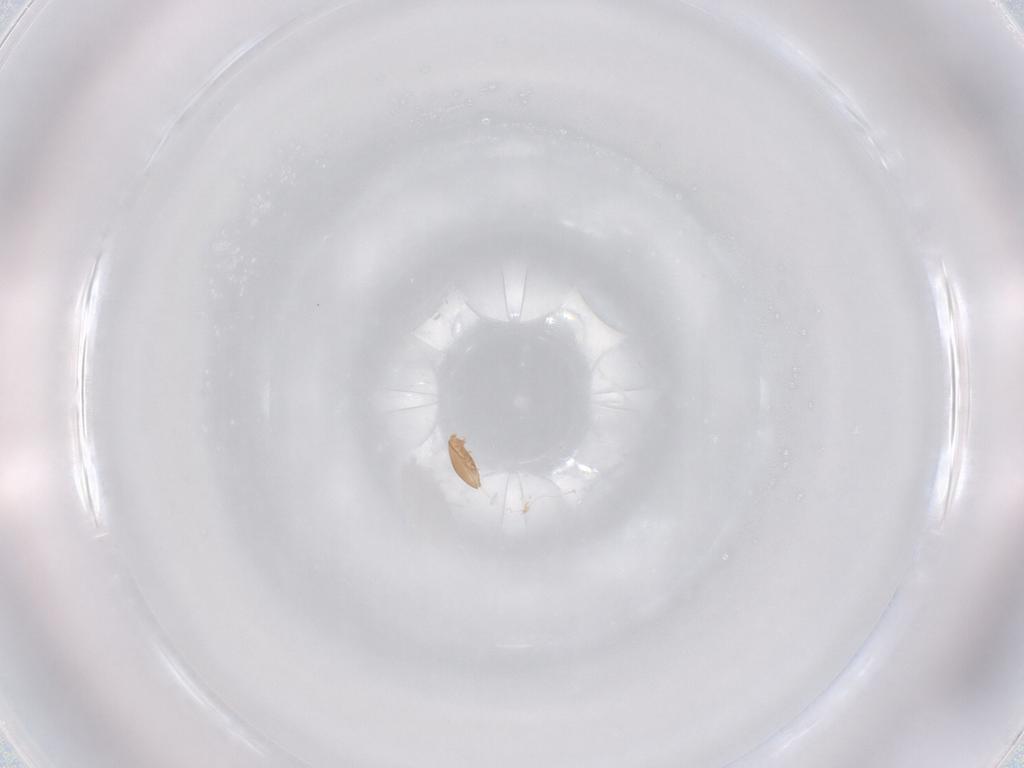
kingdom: Animalia
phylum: Arthropoda
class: Arachnida
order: Mesostigmata
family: Trematuridae
